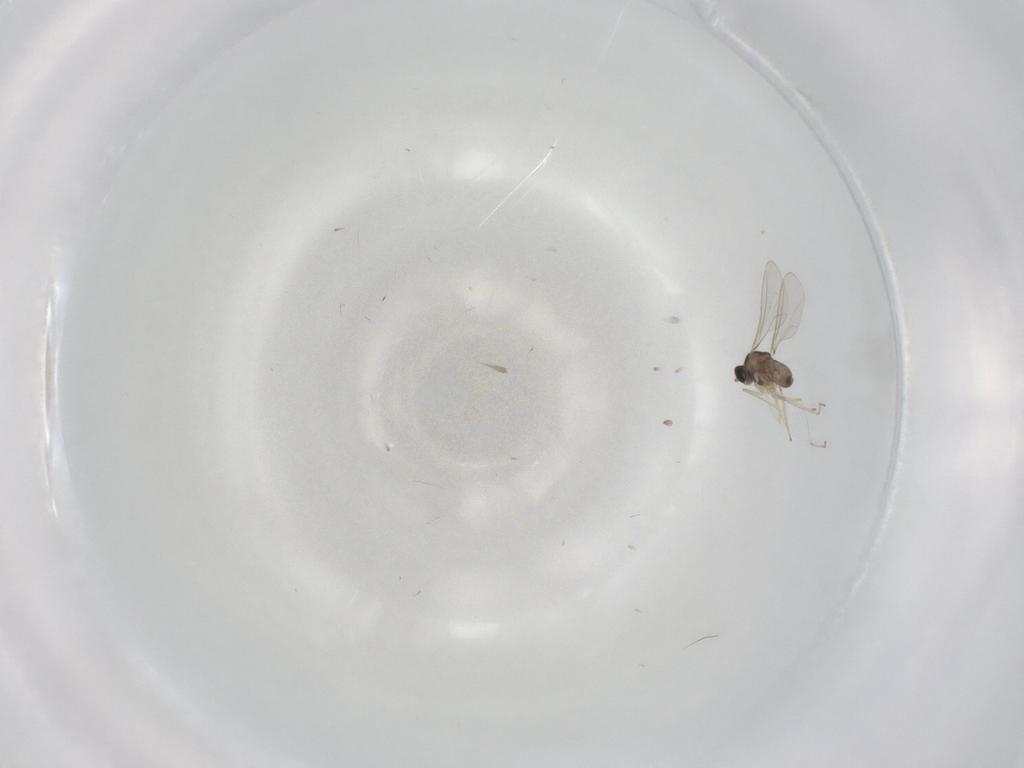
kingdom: Animalia
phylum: Arthropoda
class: Insecta
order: Diptera
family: Cecidomyiidae
